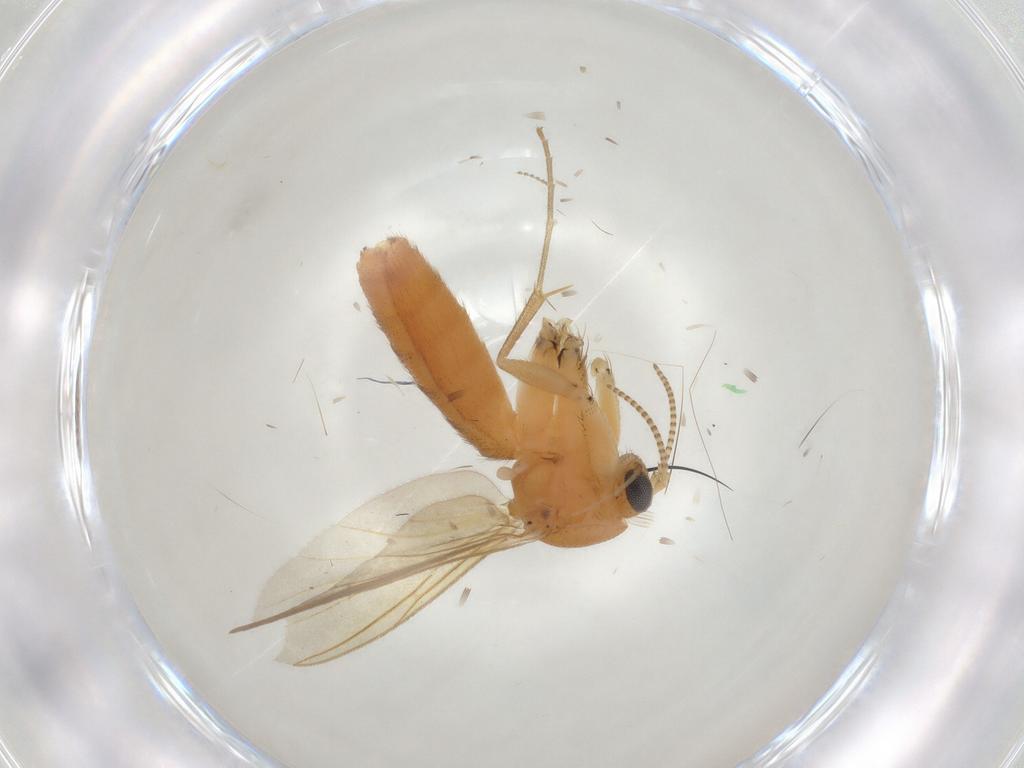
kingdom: Animalia
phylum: Arthropoda
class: Insecta
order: Diptera
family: Mycetophilidae
